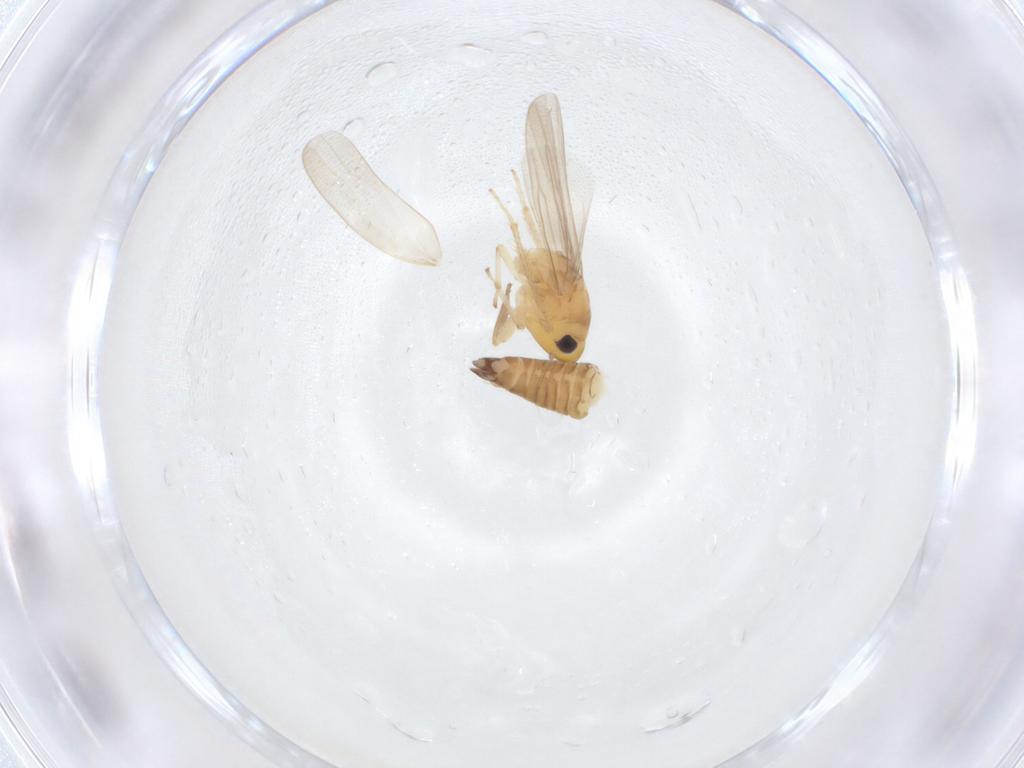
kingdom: Animalia
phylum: Arthropoda
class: Insecta
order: Hemiptera
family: Cicadellidae
